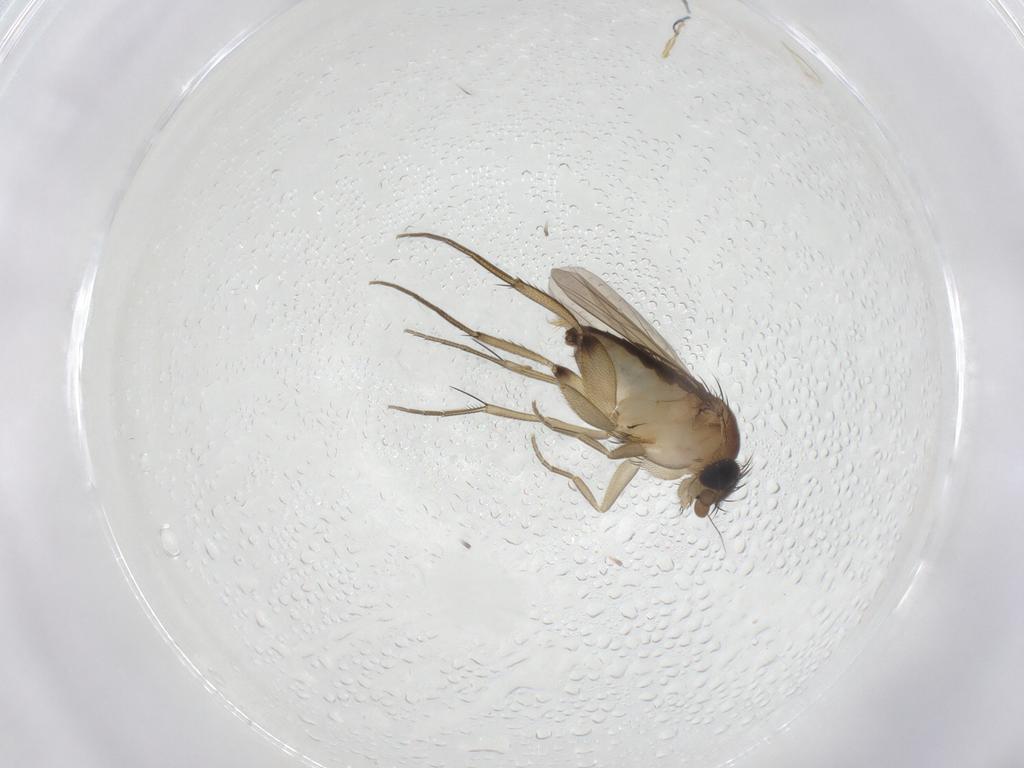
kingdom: Animalia
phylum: Arthropoda
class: Insecta
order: Diptera
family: Phoridae
